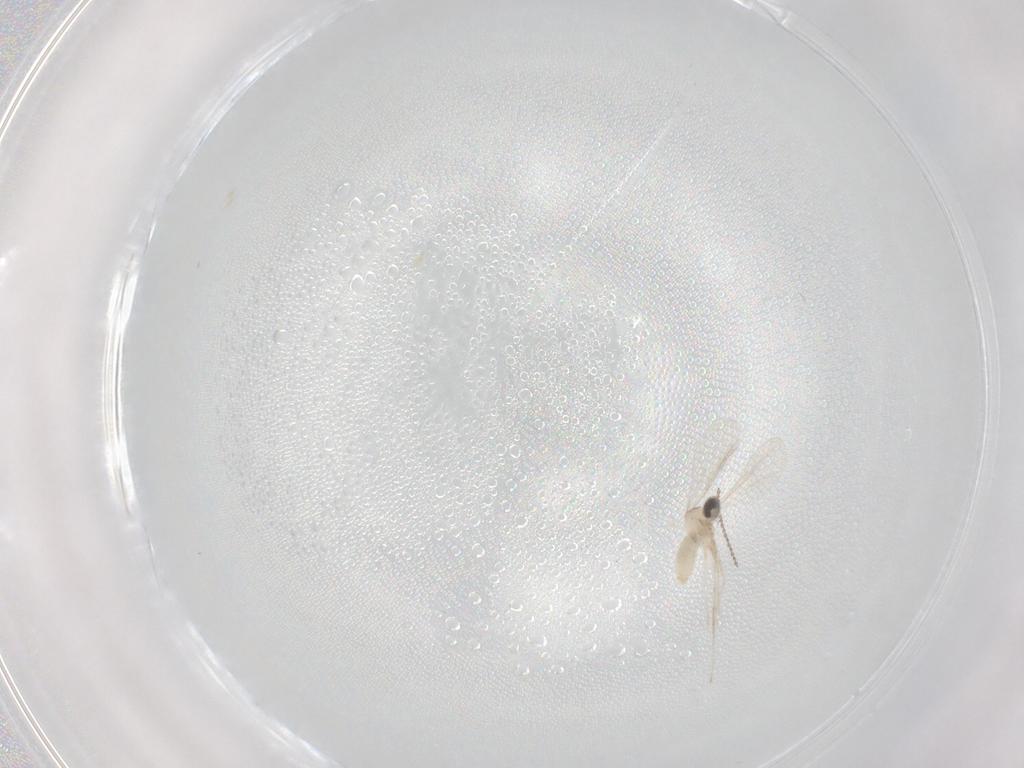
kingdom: Animalia
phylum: Arthropoda
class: Insecta
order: Diptera
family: Cecidomyiidae
